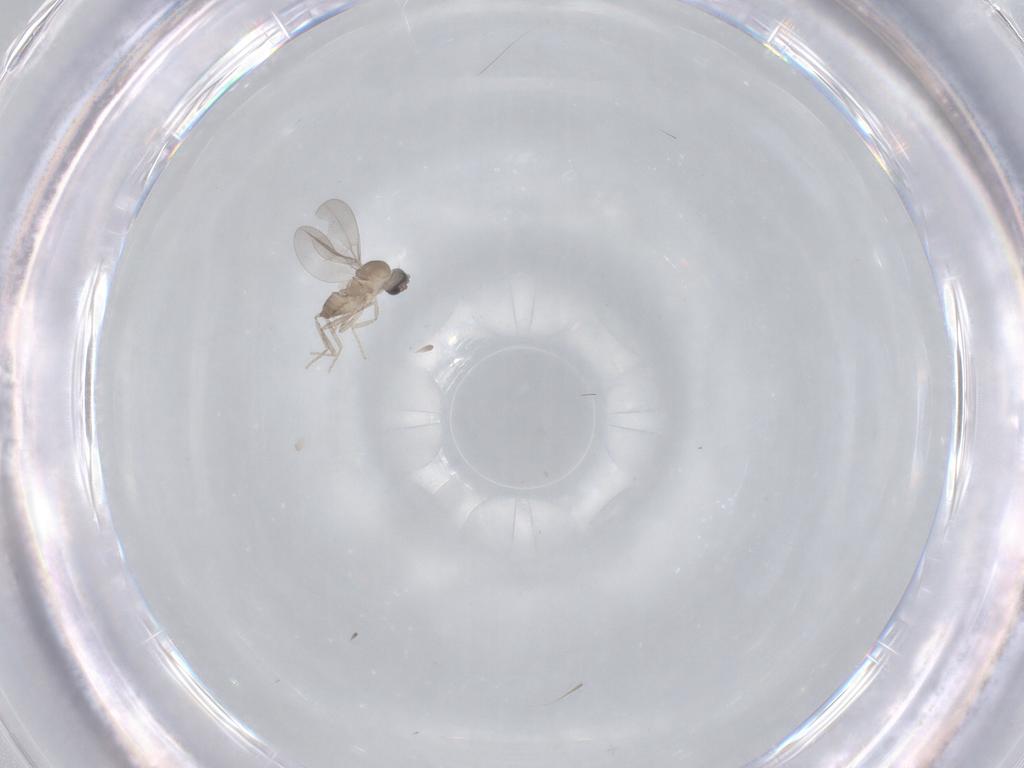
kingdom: Animalia
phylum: Arthropoda
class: Insecta
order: Diptera
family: Cecidomyiidae
